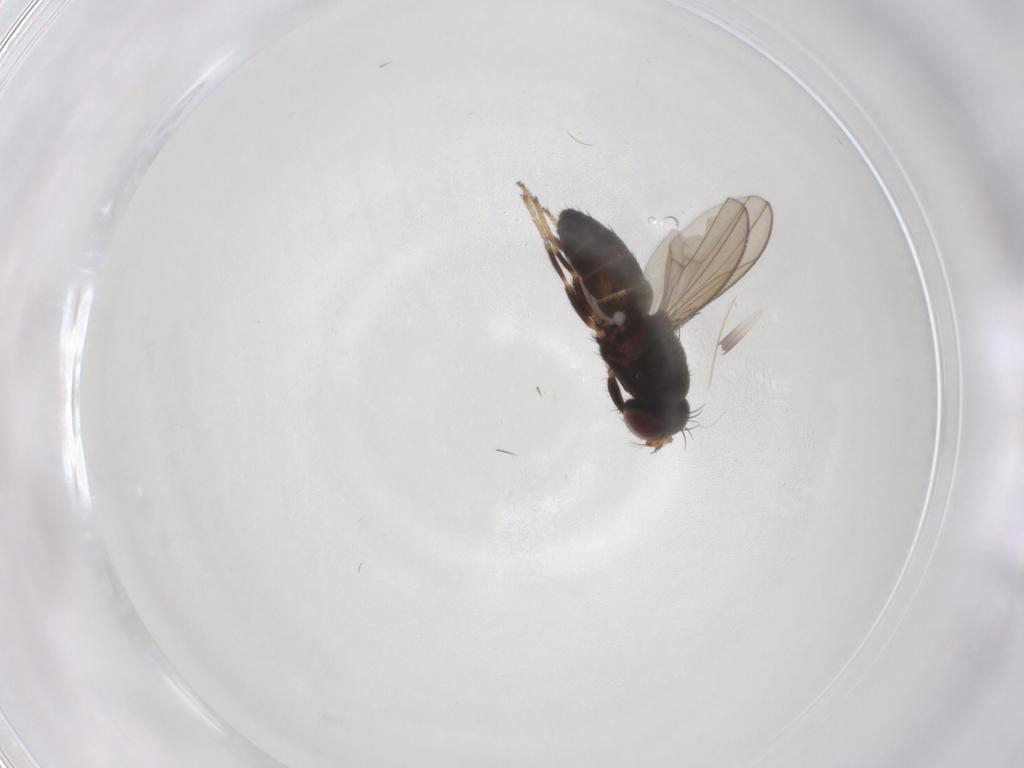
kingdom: Animalia
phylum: Arthropoda
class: Insecta
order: Diptera
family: Ephydridae
